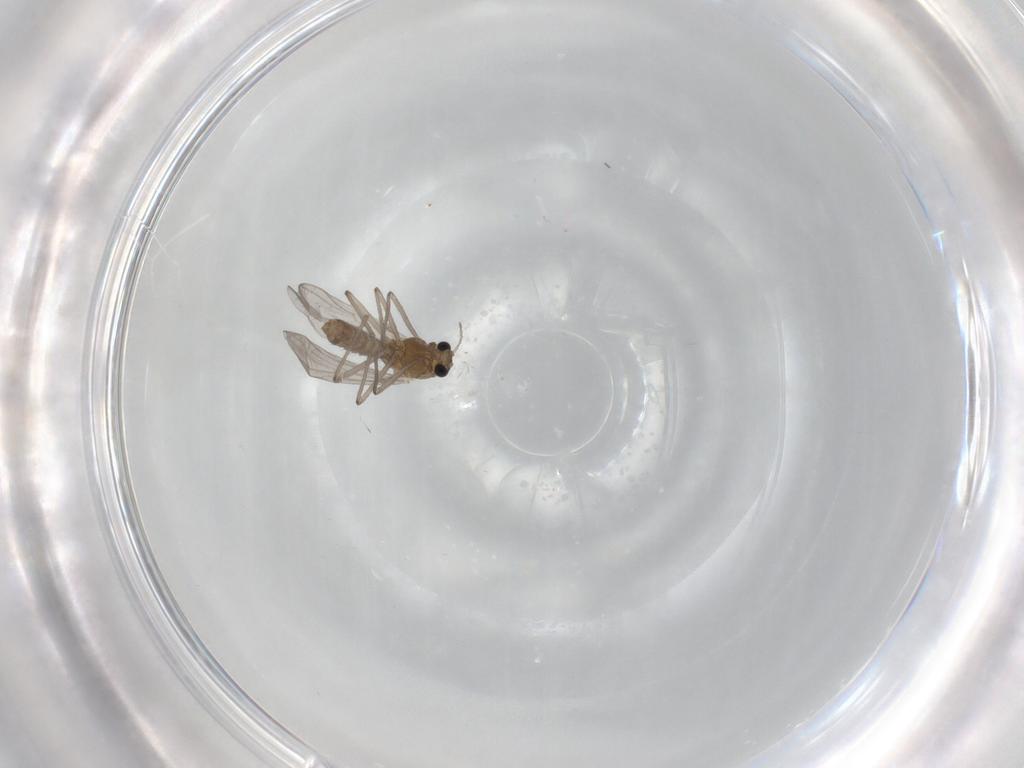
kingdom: Animalia
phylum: Arthropoda
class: Insecta
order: Diptera
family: Chironomidae
